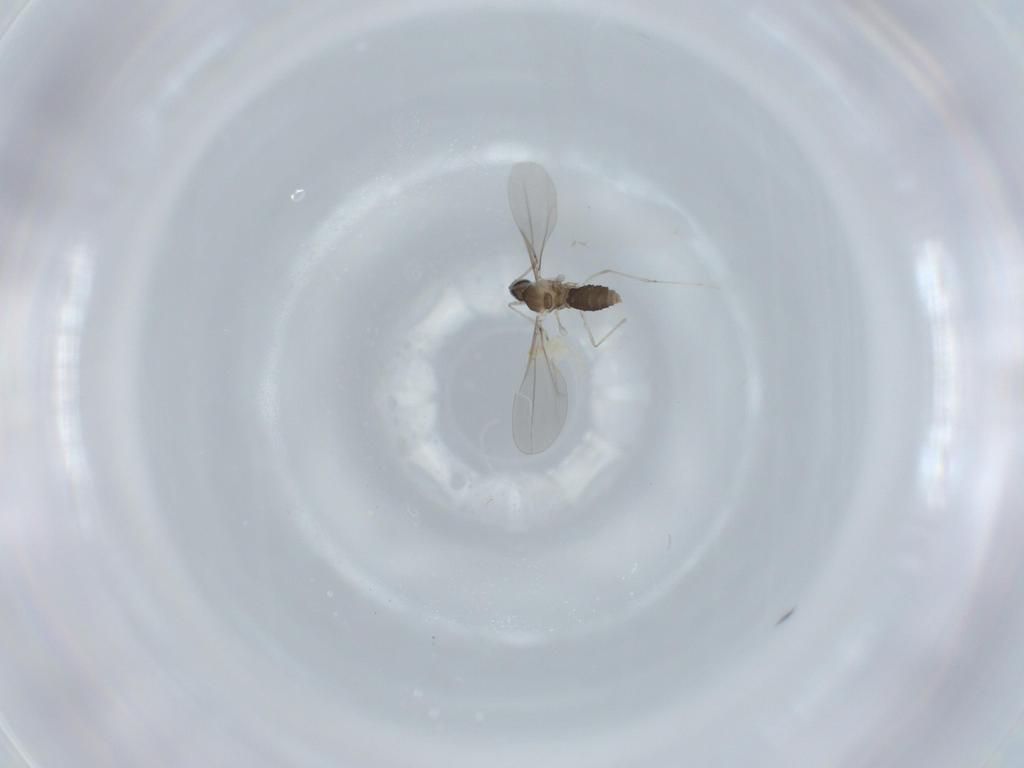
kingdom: Animalia
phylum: Arthropoda
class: Insecta
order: Diptera
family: Cecidomyiidae
